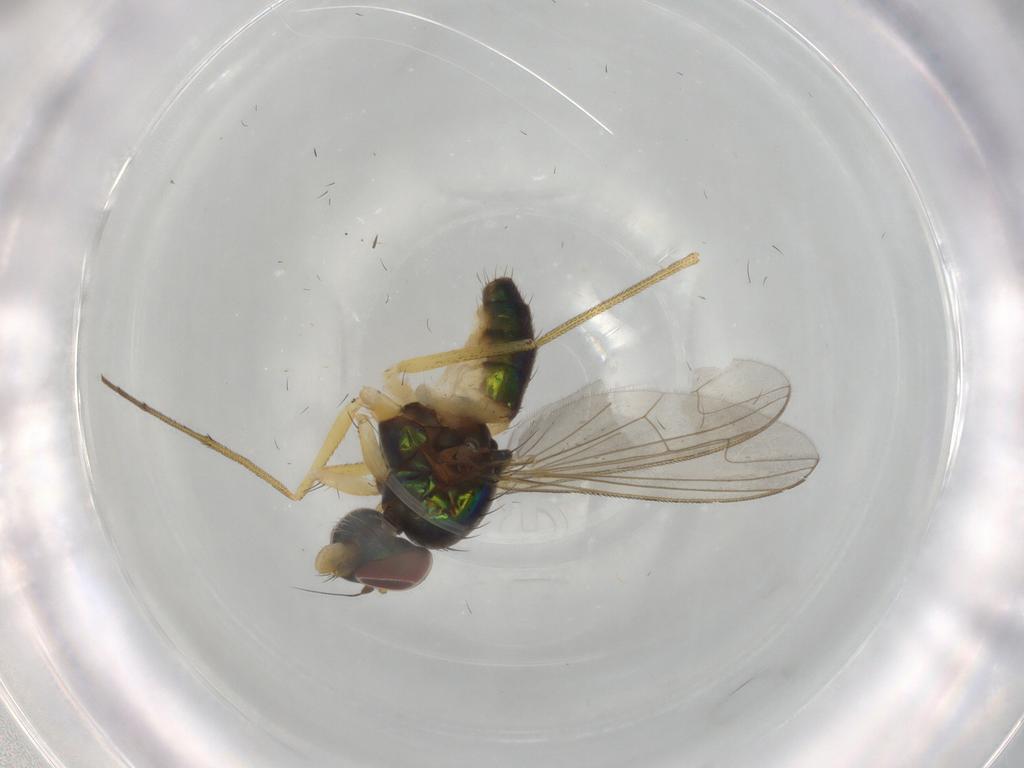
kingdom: Animalia
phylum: Arthropoda
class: Insecta
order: Diptera
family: Dolichopodidae
